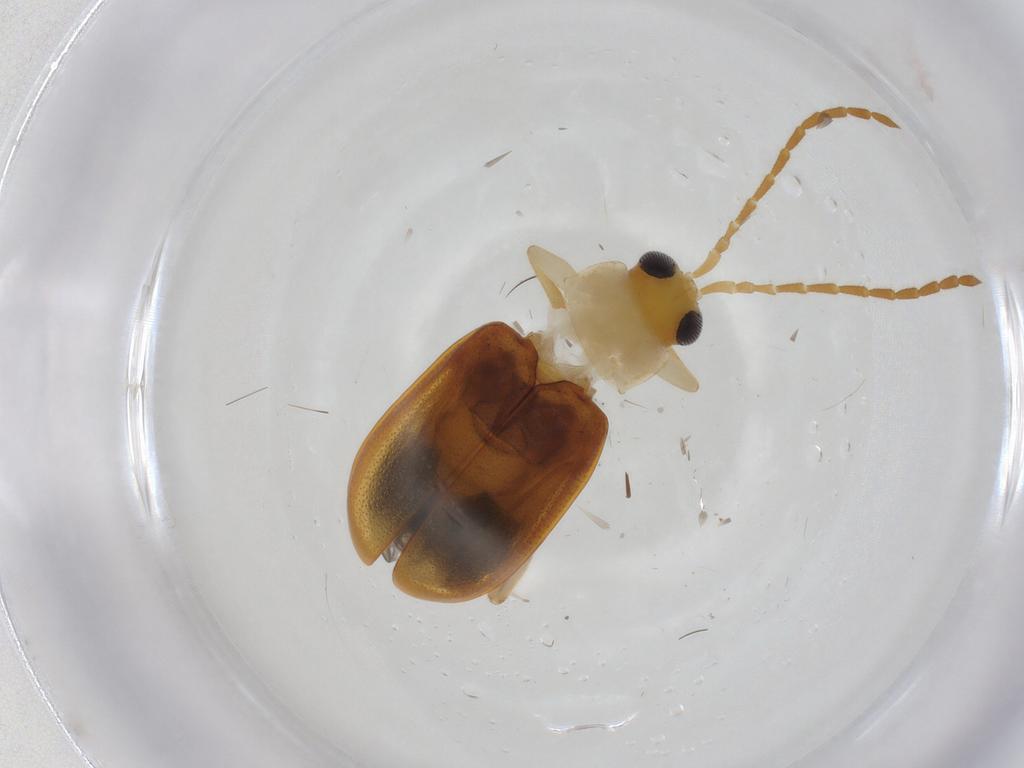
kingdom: Animalia
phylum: Arthropoda
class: Insecta
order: Coleoptera
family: Chrysomelidae
